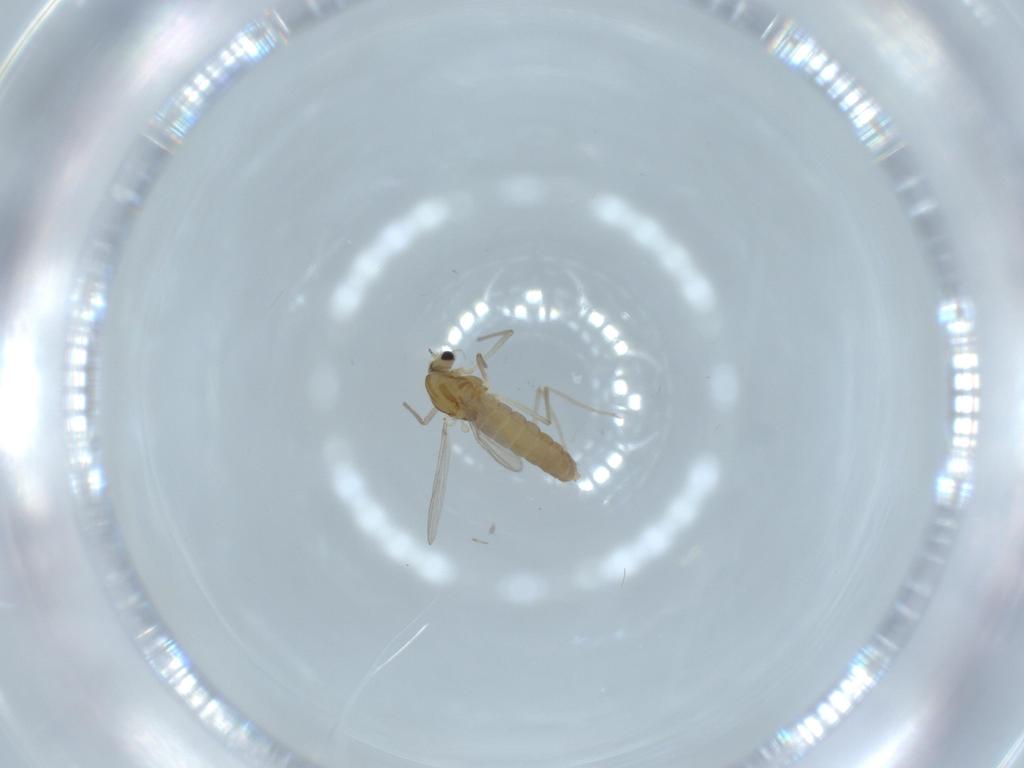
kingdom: Animalia
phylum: Arthropoda
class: Insecta
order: Diptera
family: Chironomidae
